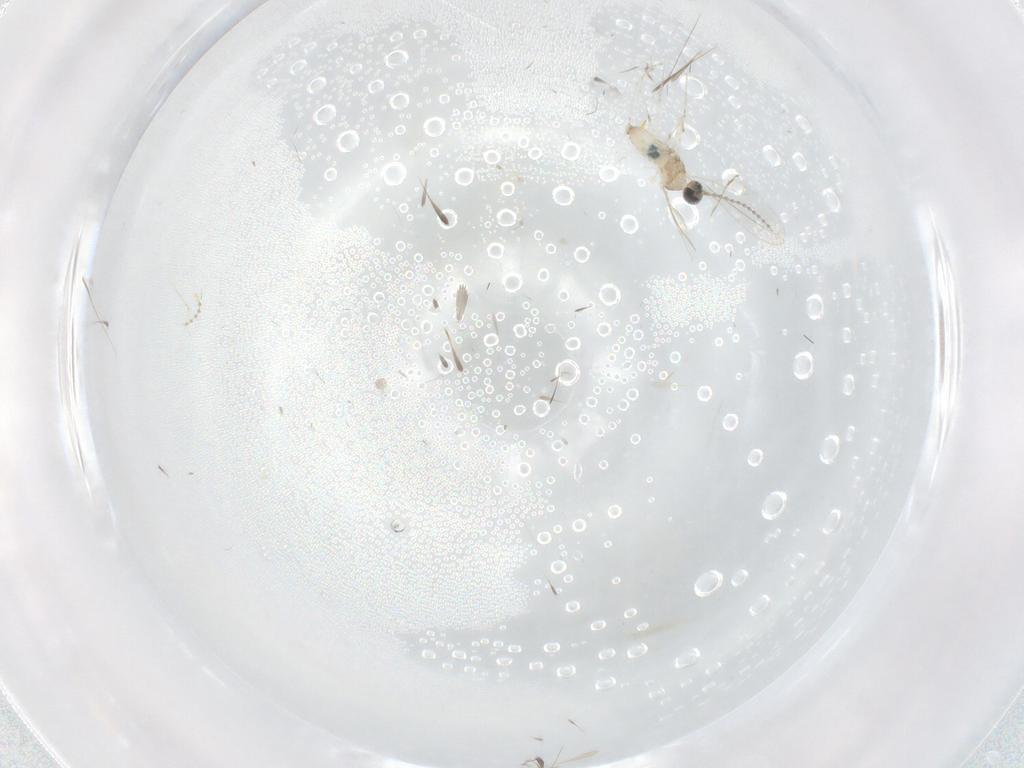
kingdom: Animalia
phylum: Arthropoda
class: Insecta
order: Diptera
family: Cecidomyiidae
